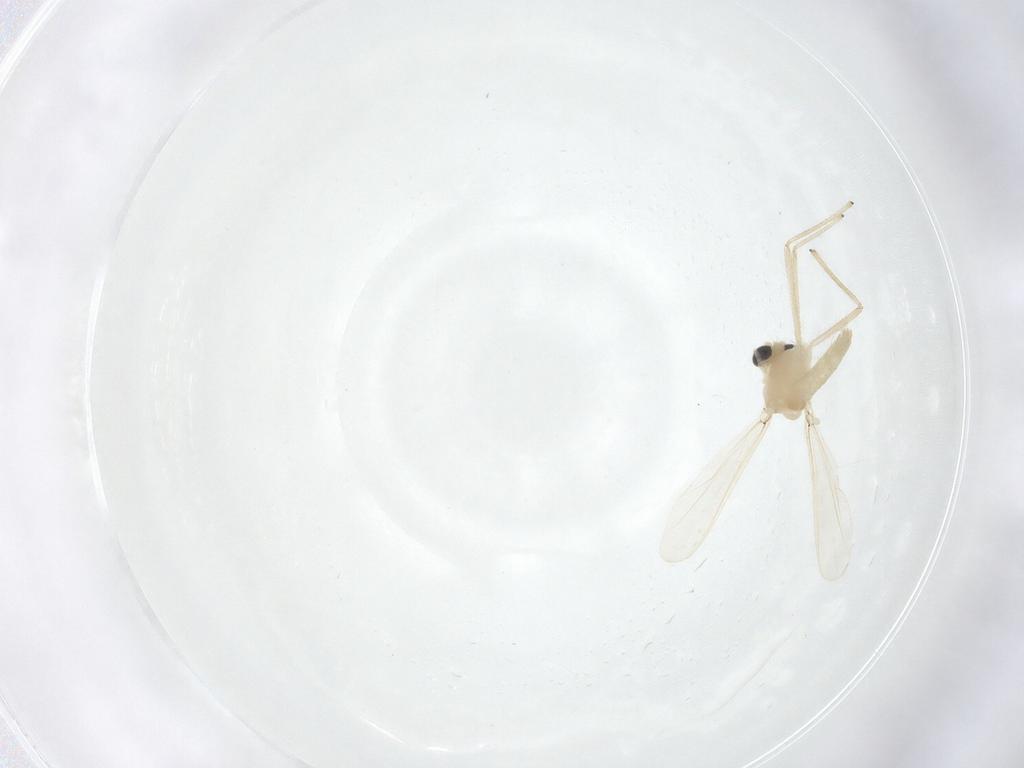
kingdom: Animalia
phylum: Arthropoda
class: Insecta
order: Diptera
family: Chironomidae
